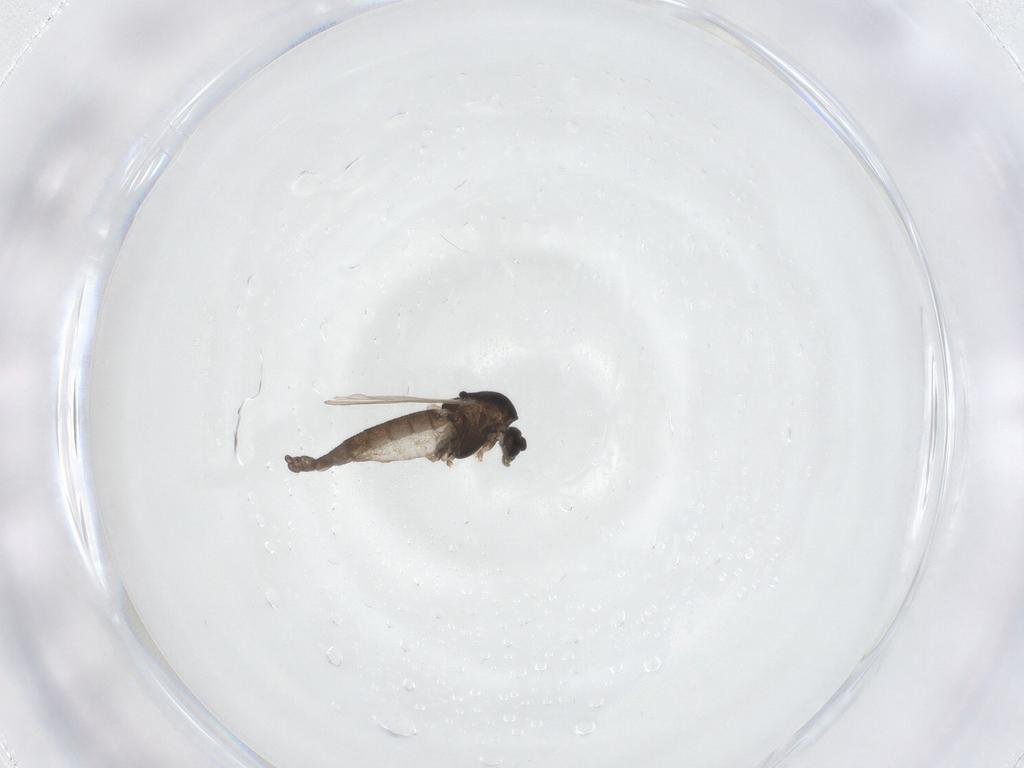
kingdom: Animalia
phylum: Arthropoda
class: Insecta
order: Diptera
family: Chironomidae
